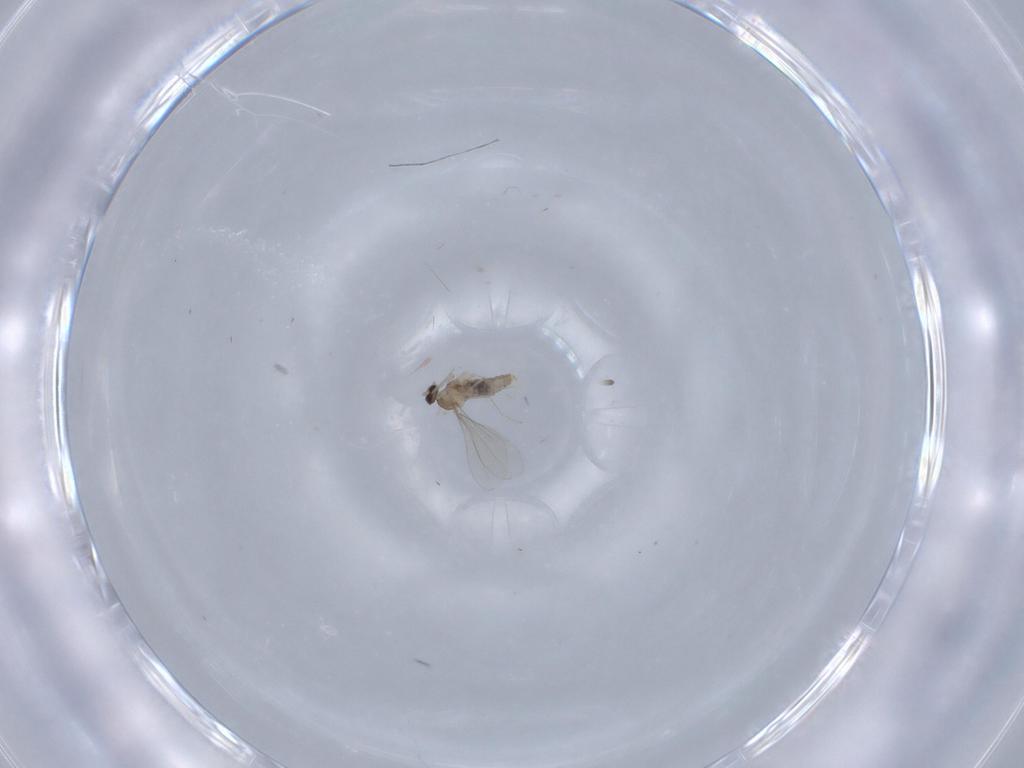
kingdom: Animalia
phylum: Arthropoda
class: Insecta
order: Diptera
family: Cecidomyiidae
